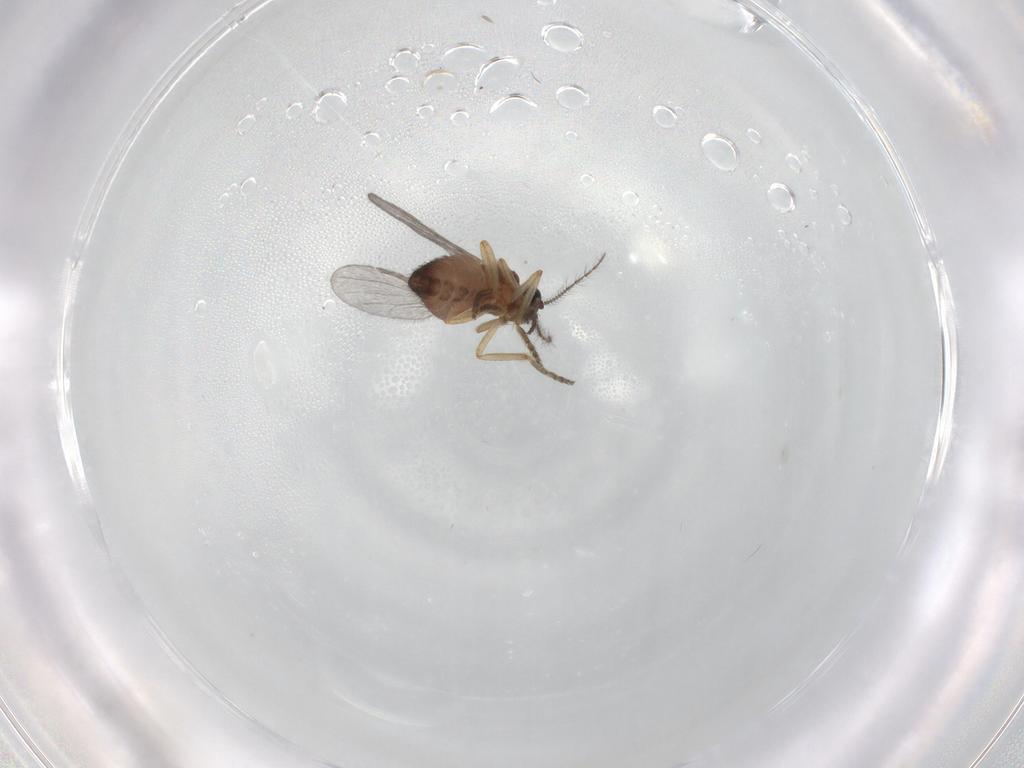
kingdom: Animalia
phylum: Arthropoda
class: Insecta
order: Diptera
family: Ceratopogonidae
